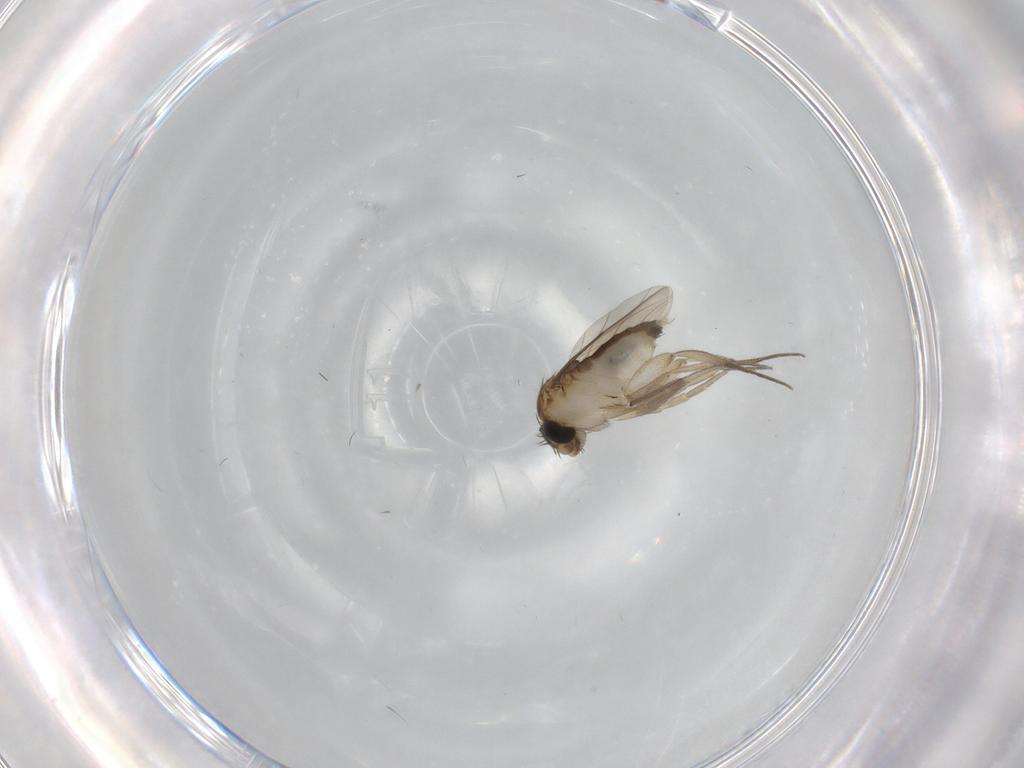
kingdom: Animalia
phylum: Arthropoda
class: Insecta
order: Diptera
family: Phoridae
